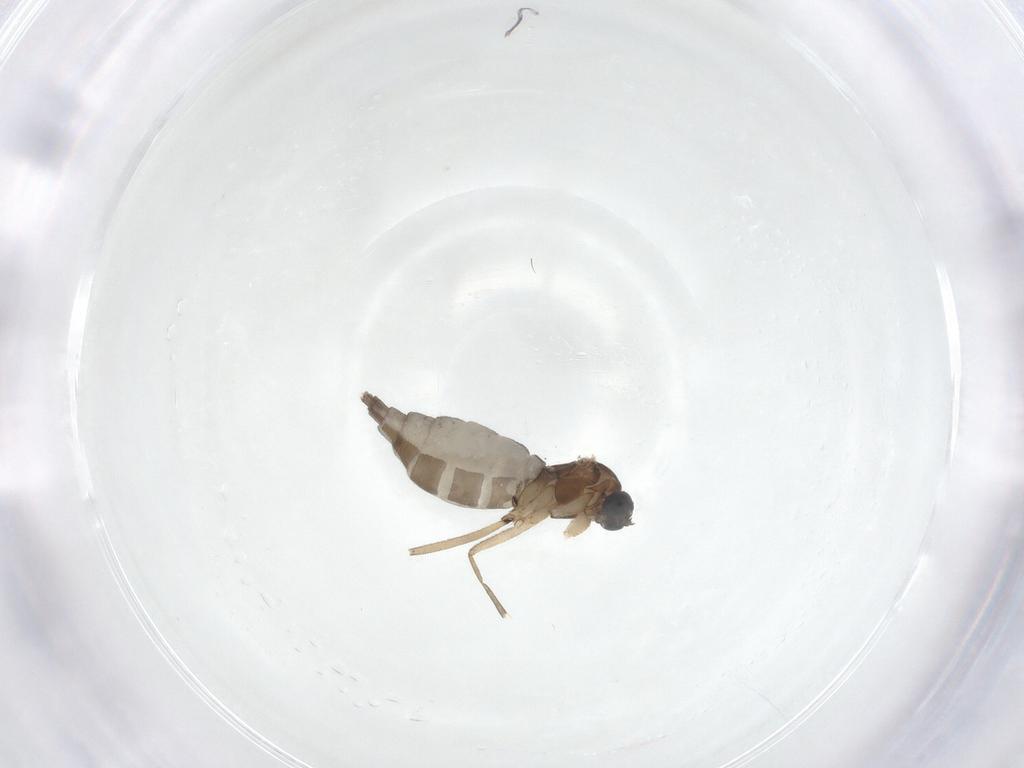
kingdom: Animalia
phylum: Arthropoda
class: Insecta
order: Diptera
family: Sciaridae
